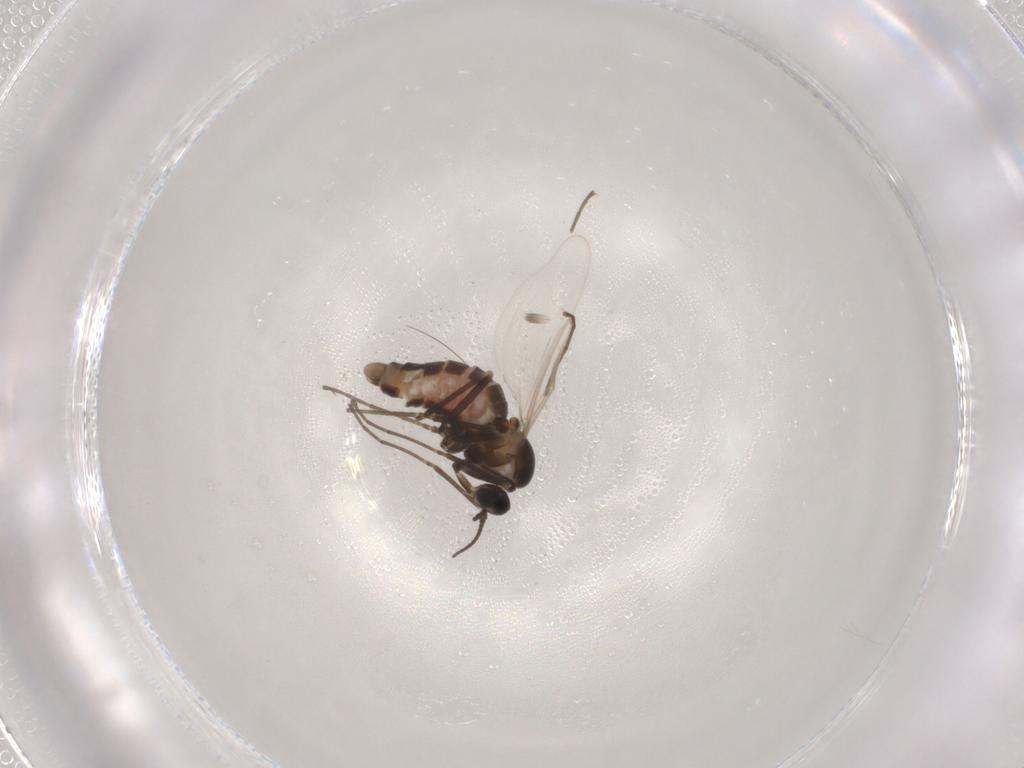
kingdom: Animalia
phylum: Arthropoda
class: Insecta
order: Diptera
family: Cecidomyiidae
